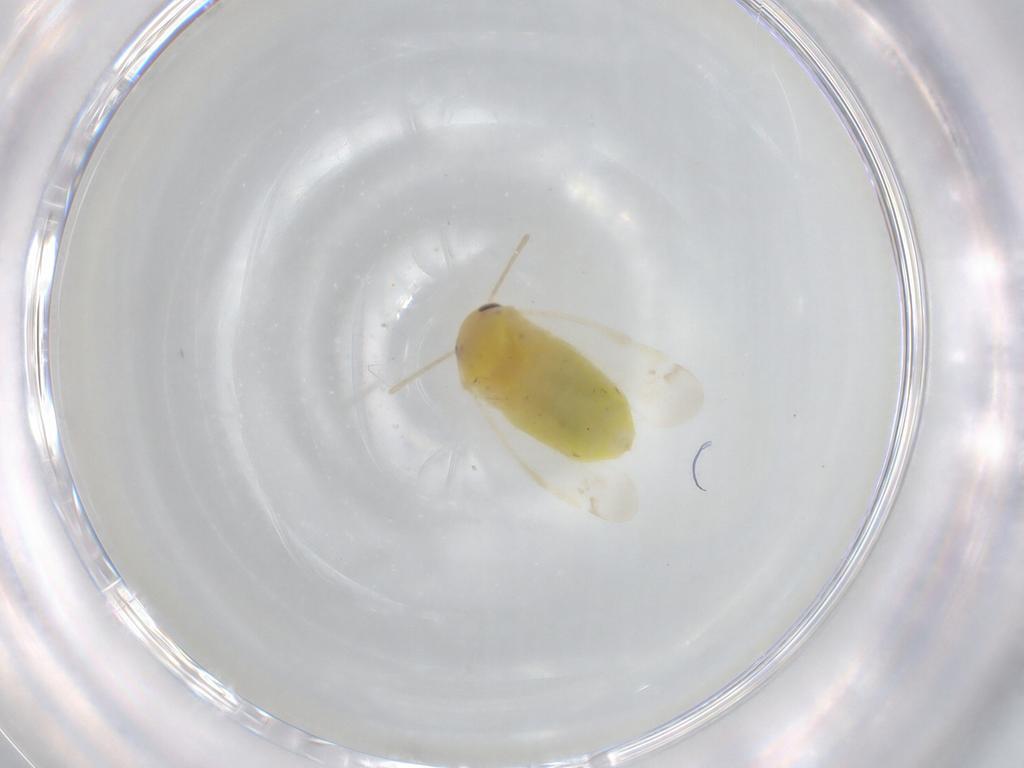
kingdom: Animalia
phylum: Arthropoda
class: Insecta
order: Hemiptera
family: Miridae
